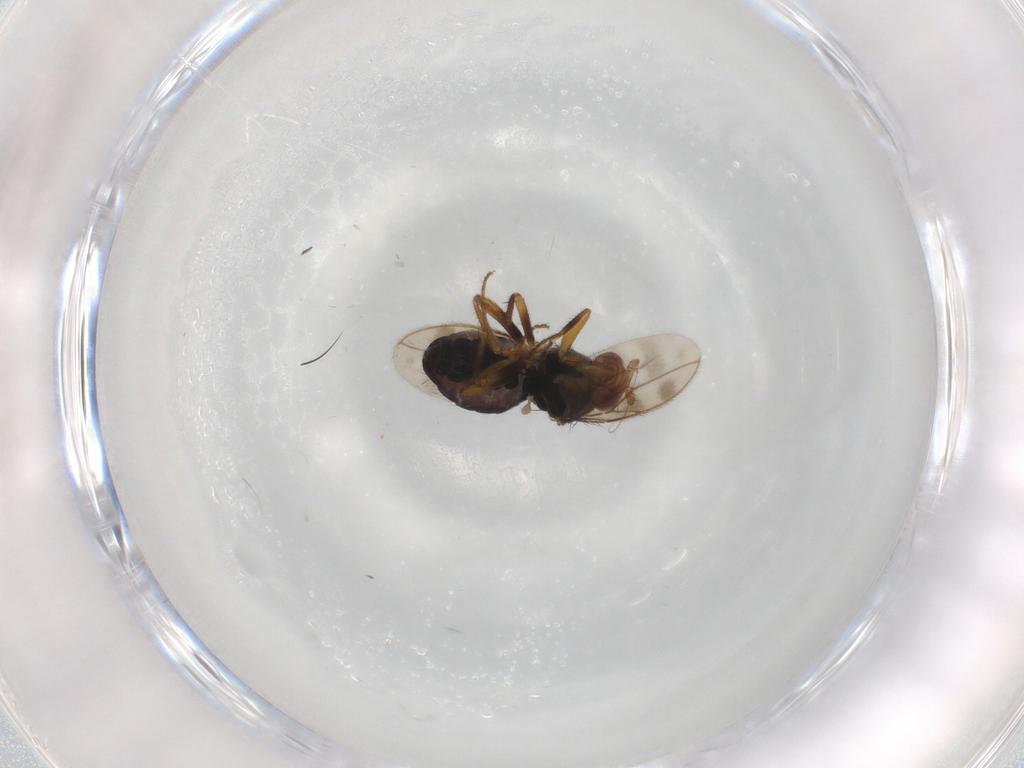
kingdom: Animalia
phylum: Arthropoda
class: Insecta
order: Diptera
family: Sphaeroceridae
